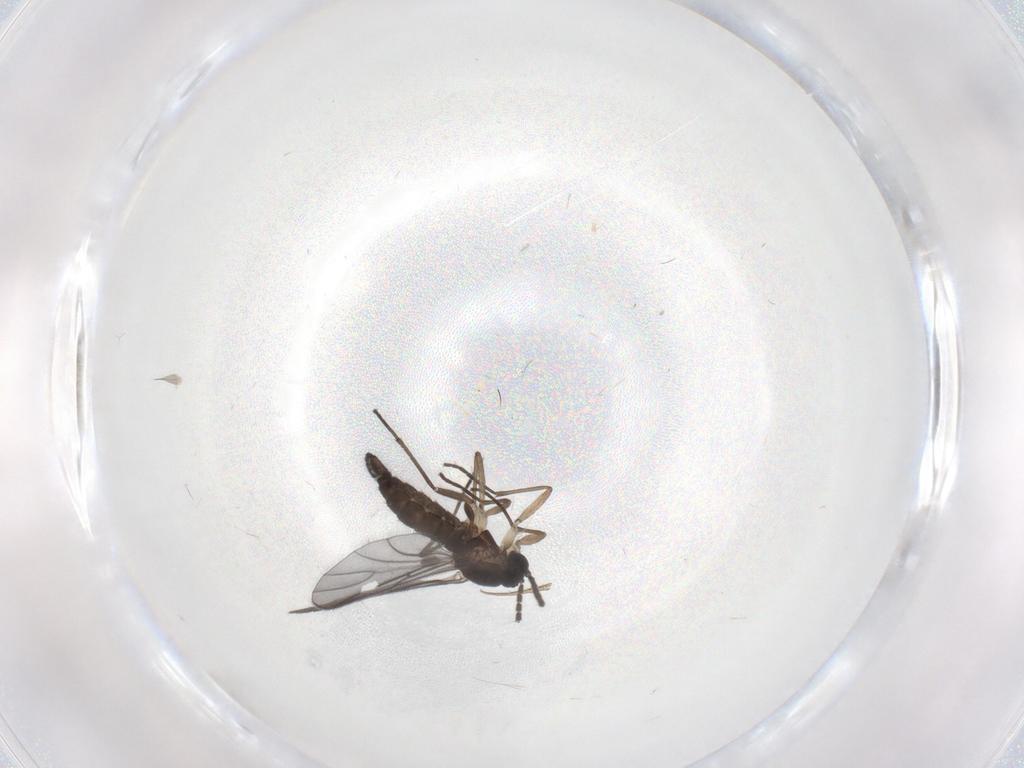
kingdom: Animalia
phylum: Arthropoda
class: Insecta
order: Diptera
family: Sciaridae
